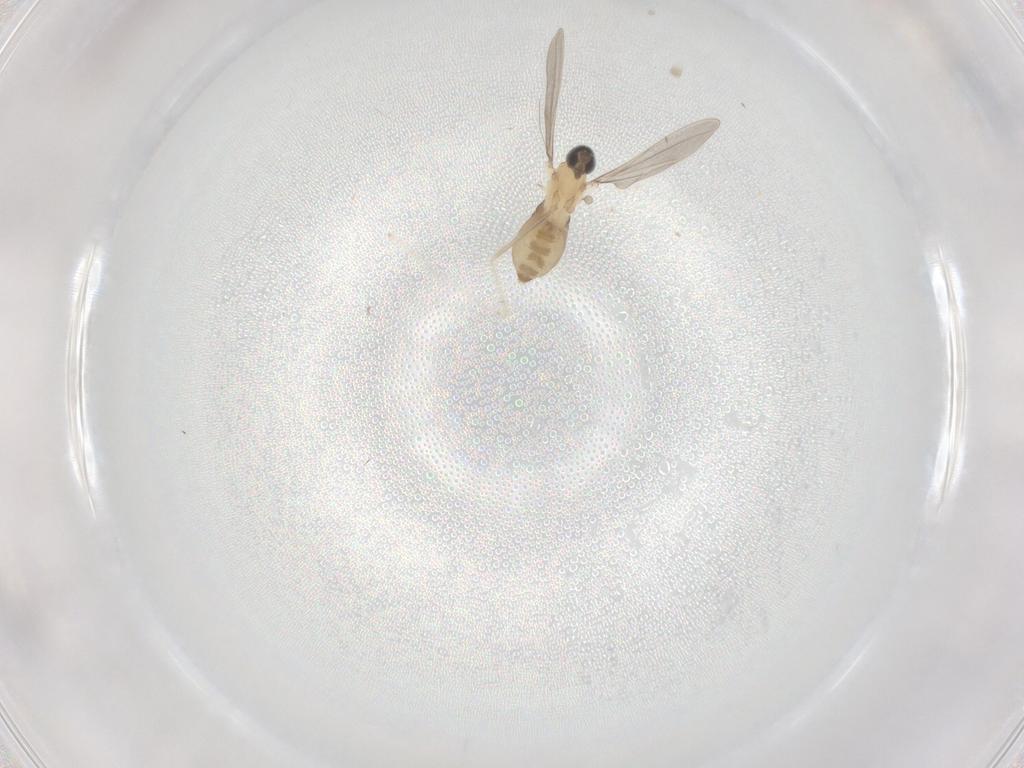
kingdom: Animalia
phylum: Arthropoda
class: Insecta
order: Diptera
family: Cecidomyiidae
